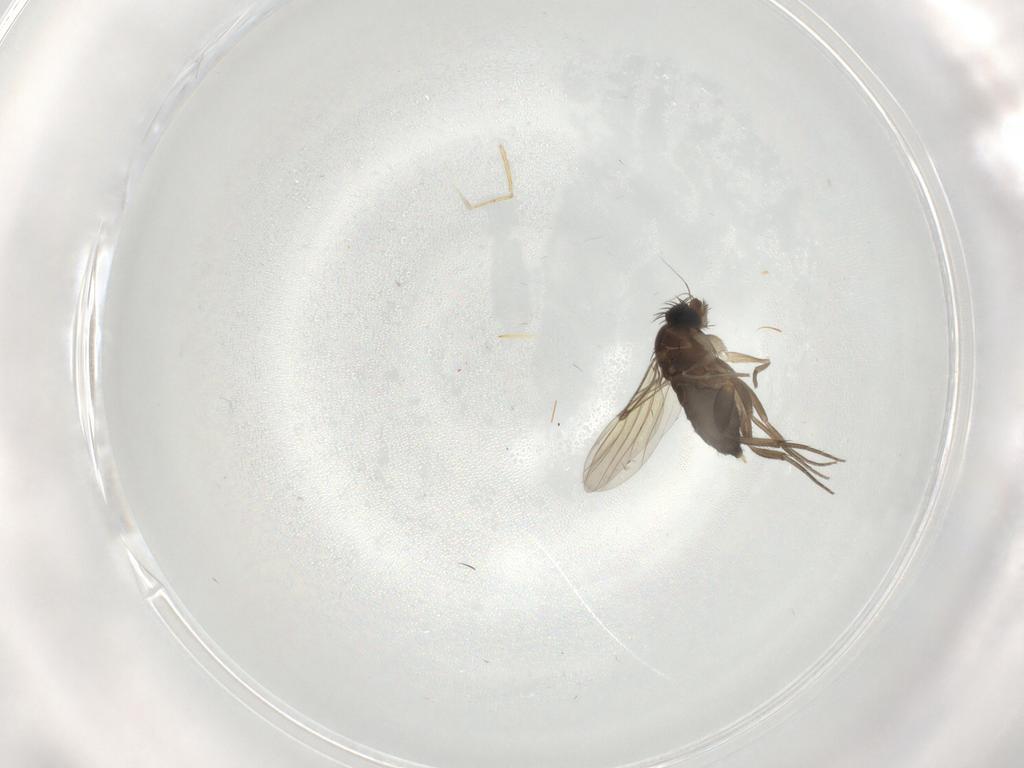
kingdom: Animalia
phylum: Arthropoda
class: Insecta
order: Diptera
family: Phoridae
